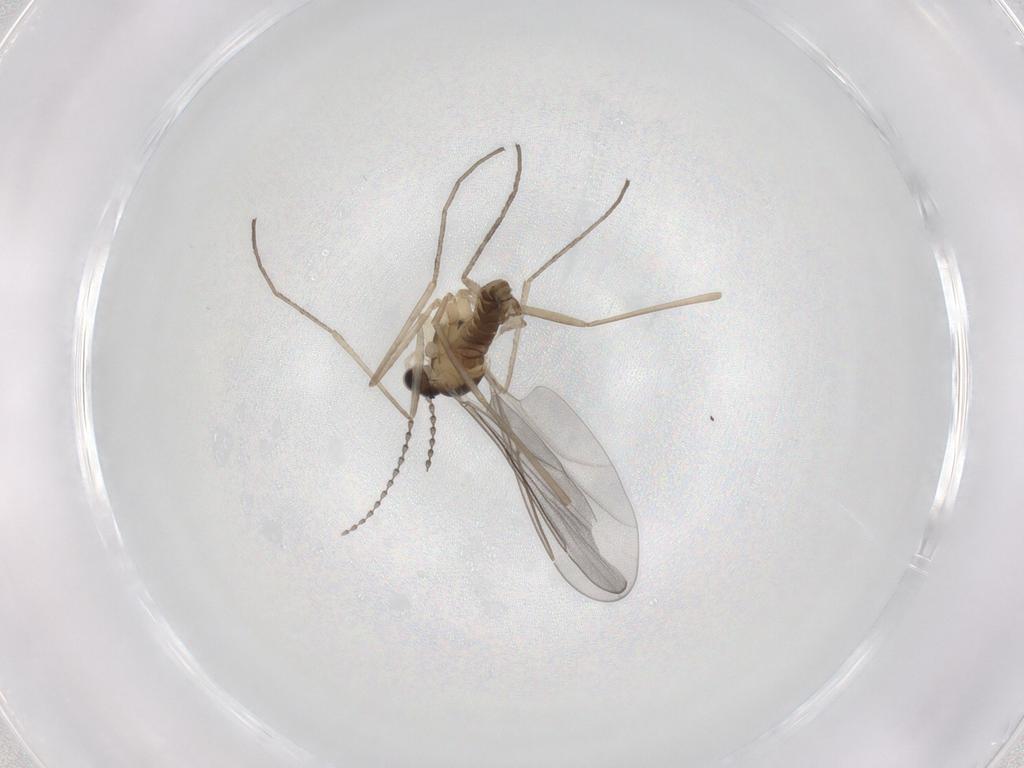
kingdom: Animalia
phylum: Arthropoda
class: Insecta
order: Diptera
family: Cecidomyiidae
